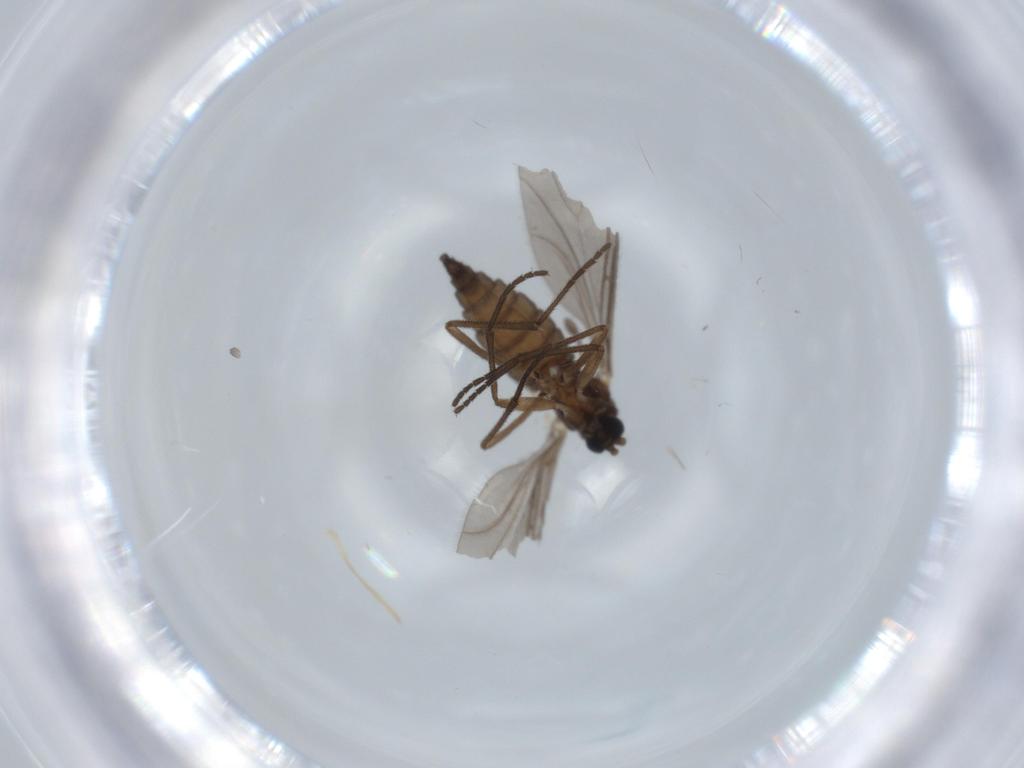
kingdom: Animalia
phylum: Arthropoda
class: Insecta
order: Diptera
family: Sciaridae
